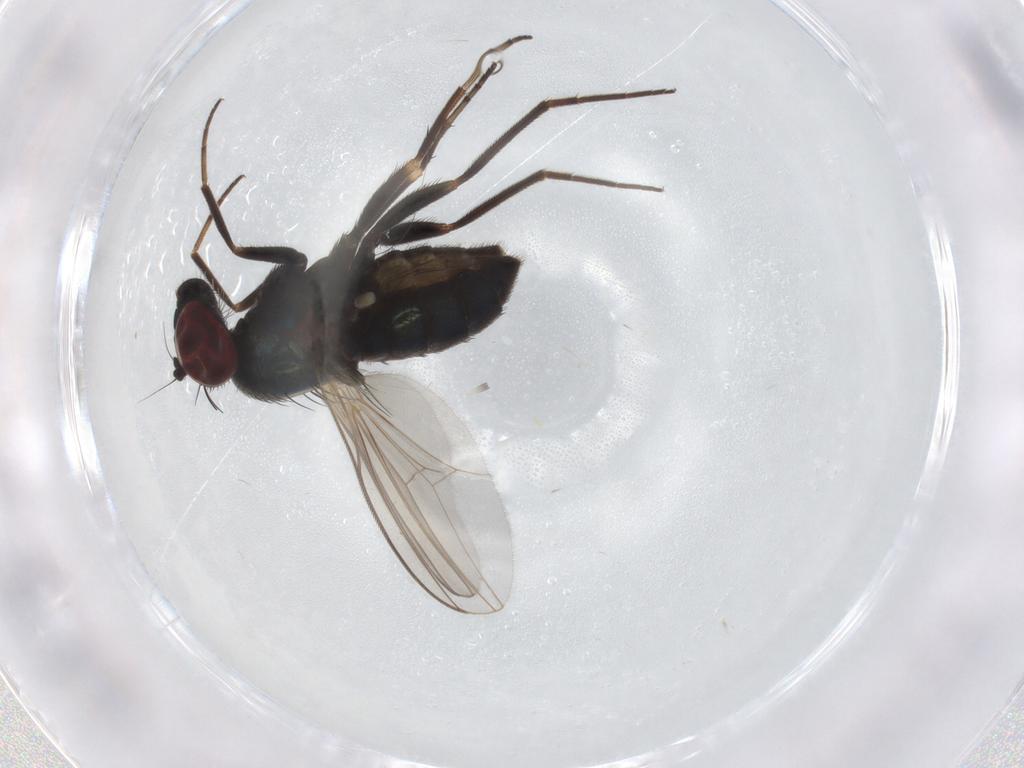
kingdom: Animalia
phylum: Arthropoda
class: Insecta
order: Diptera
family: Dolichopodidae
